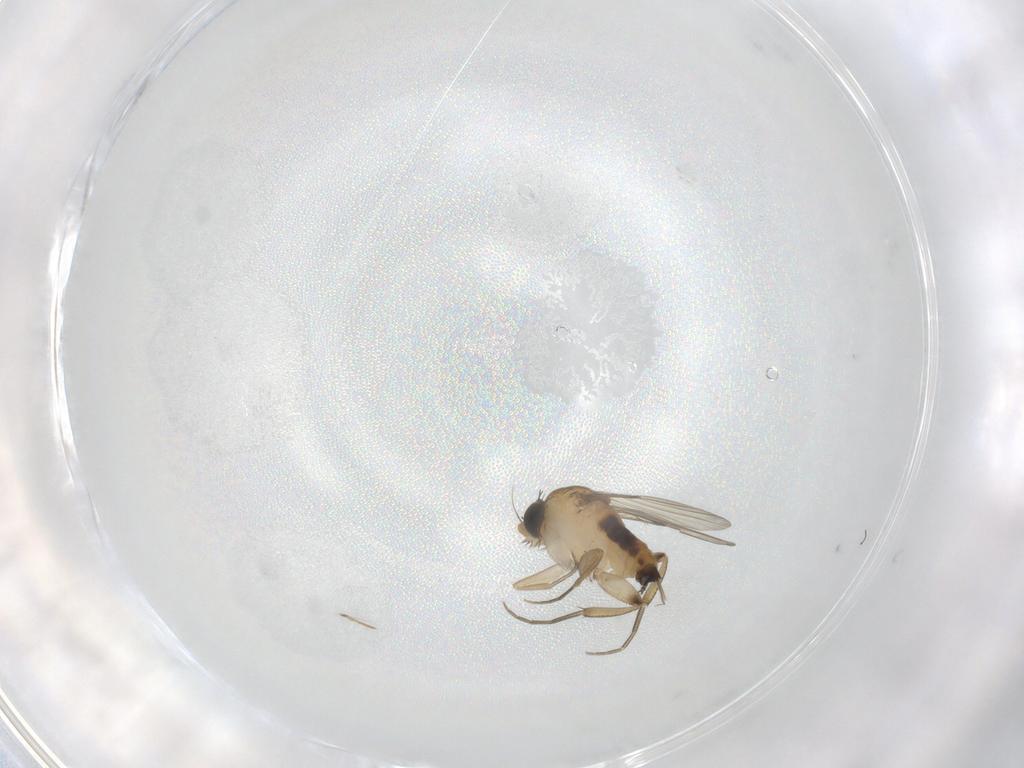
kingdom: Animalia
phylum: Arthropoda
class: Insecta
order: Diptera
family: Phoridae
